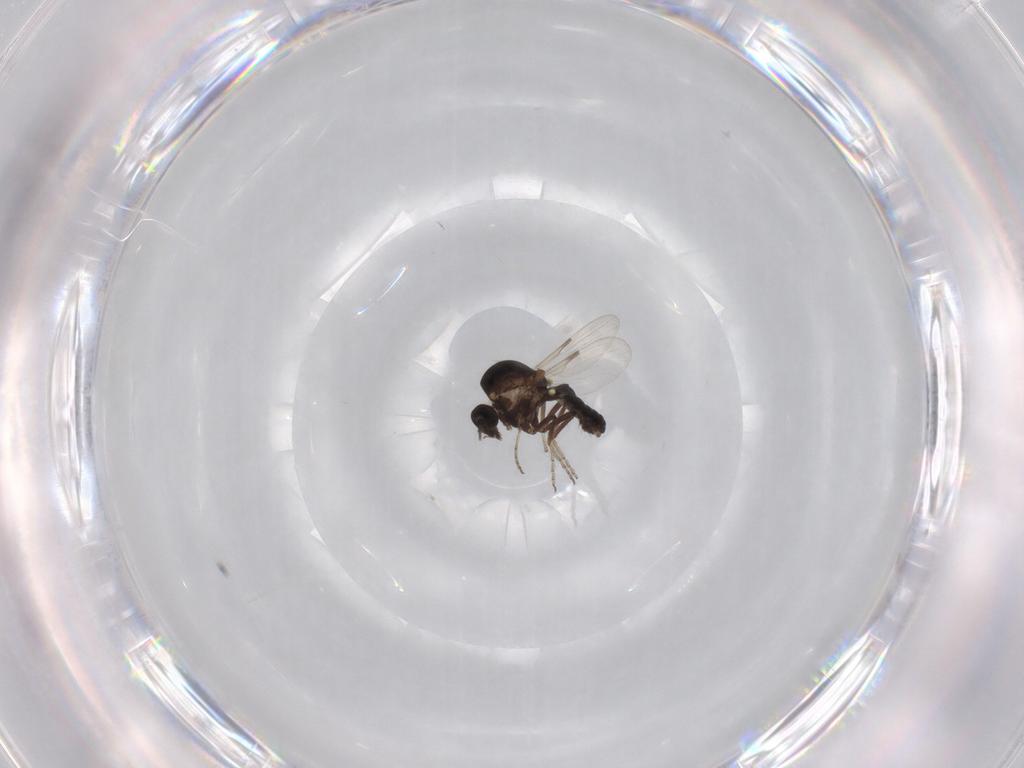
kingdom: Animalia
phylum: Arthropoda
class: Insecta
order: Diptera
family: Ceratopogonidae
